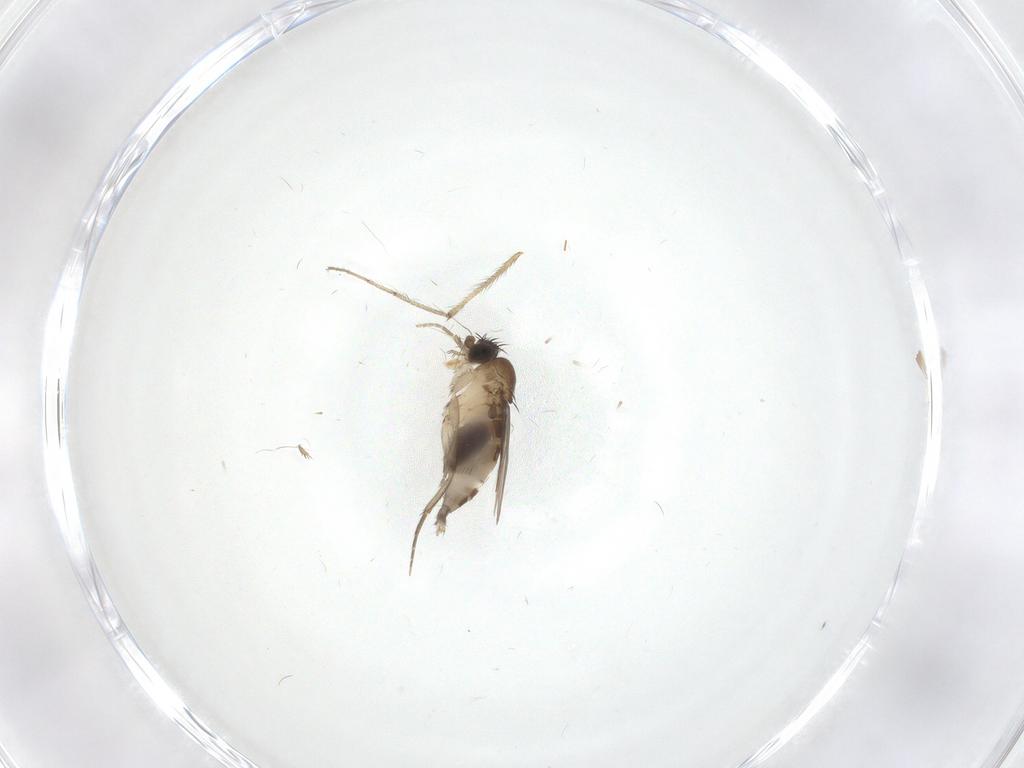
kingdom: Animalia
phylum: Arthropoda
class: Insecta
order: Diptera
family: Phoridae
